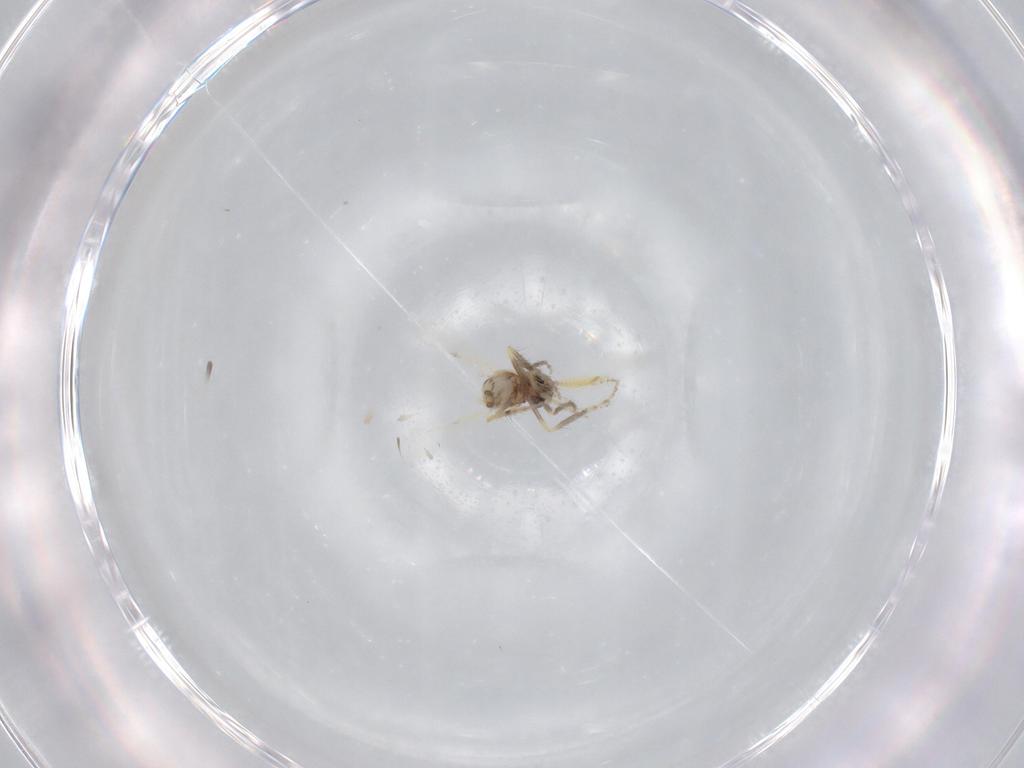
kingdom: Animalia
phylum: Arthropoda
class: Insecta
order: Diptera
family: Ceratopogonidae
